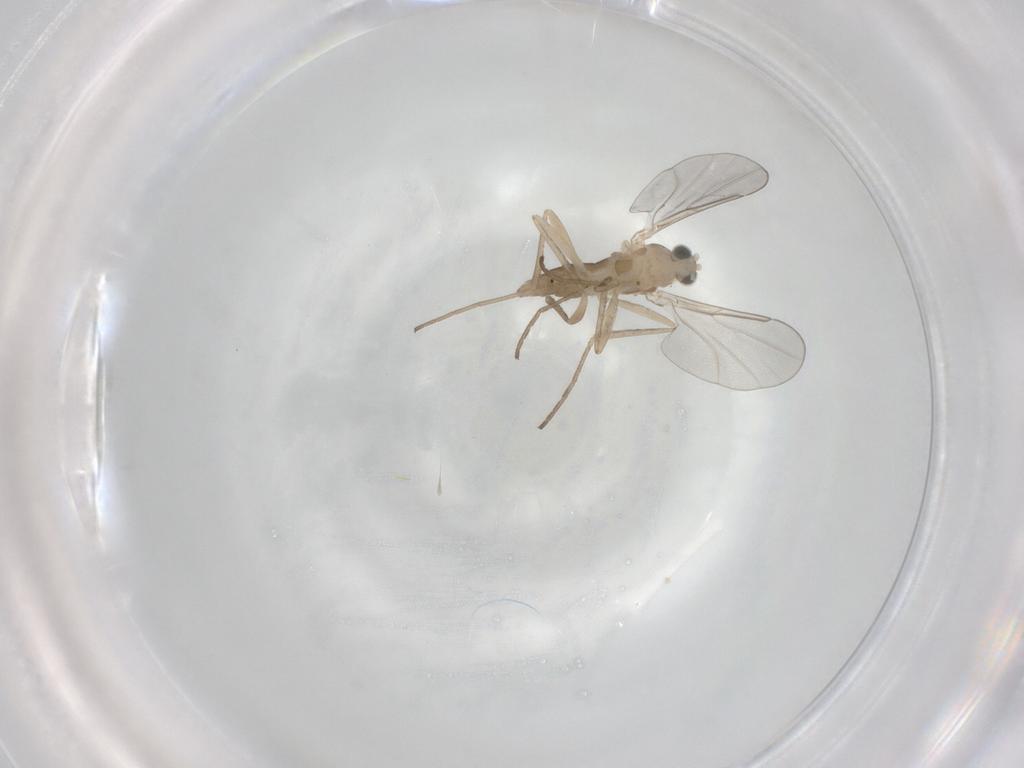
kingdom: Animalia
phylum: Arthropoda
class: Insecta
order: Diptera
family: Cecidomyiidae
